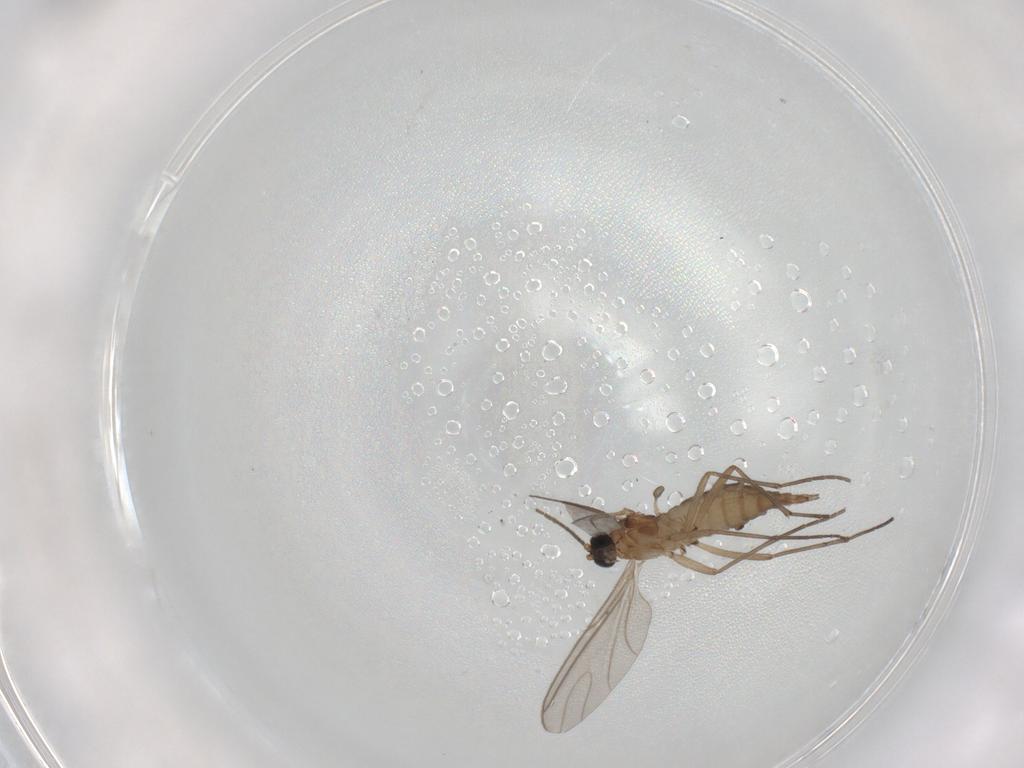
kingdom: Animalia
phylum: Arthropoda
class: Insecta
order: Diptera
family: Sciaridae
